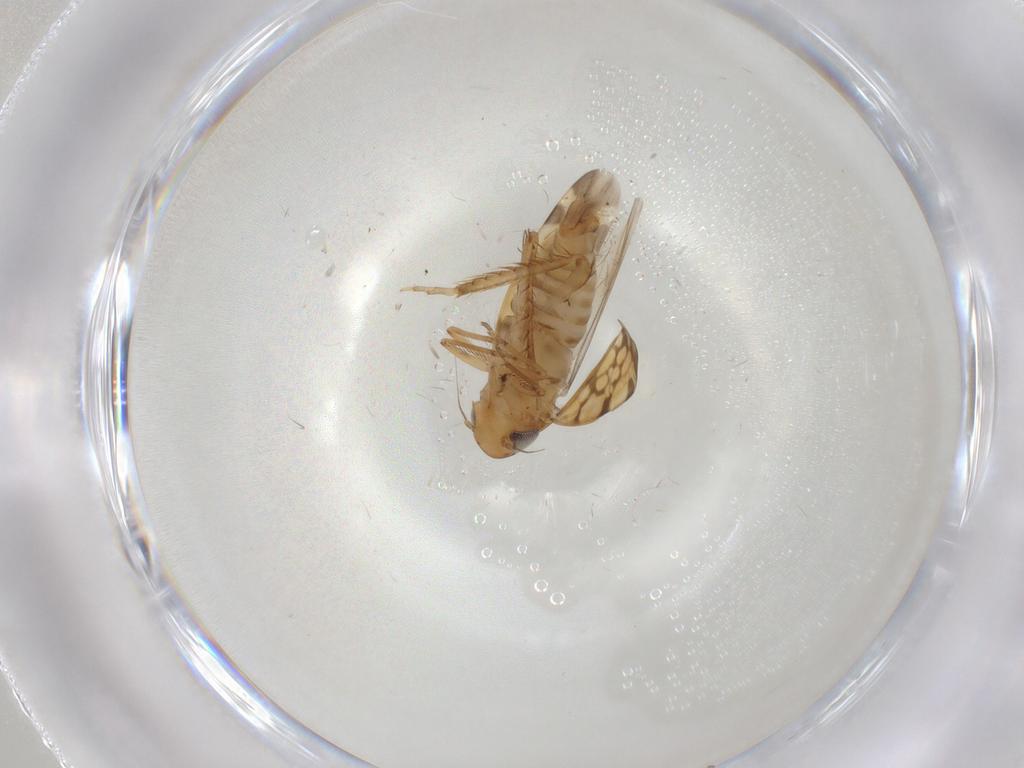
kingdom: Animalia
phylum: Arthropoda
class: Insecta
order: Hemiptera
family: Cicadellidae
